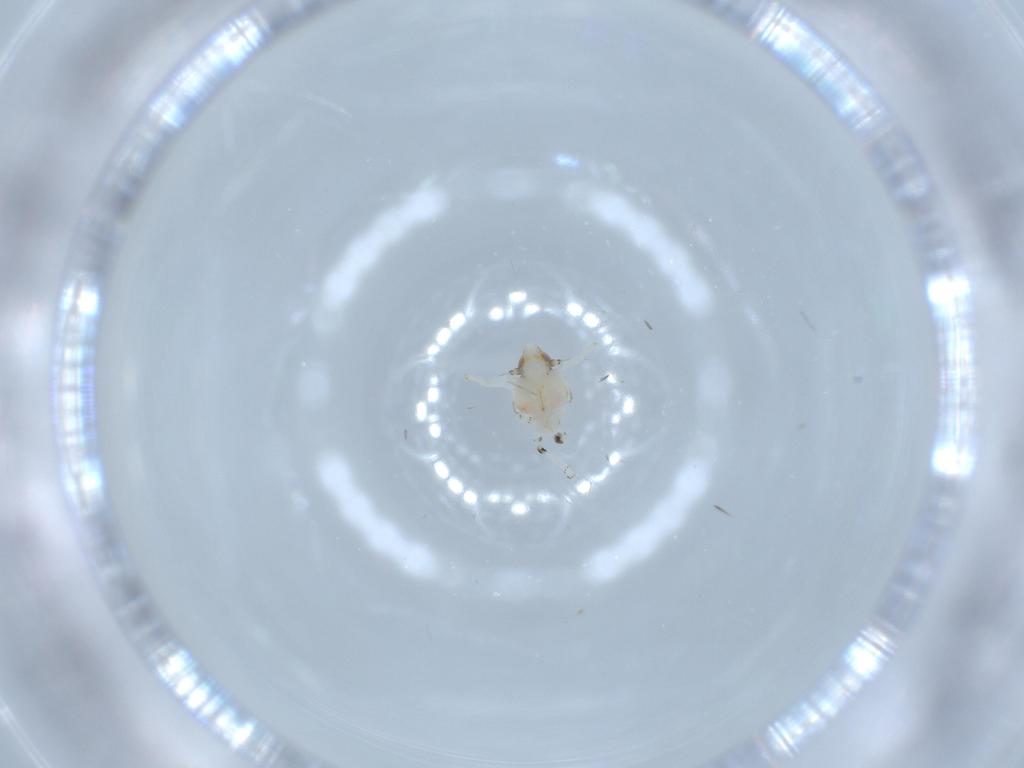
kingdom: Animalia
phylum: Arthropoda
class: Insecta
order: Hemiptera
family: Nogodinidae
